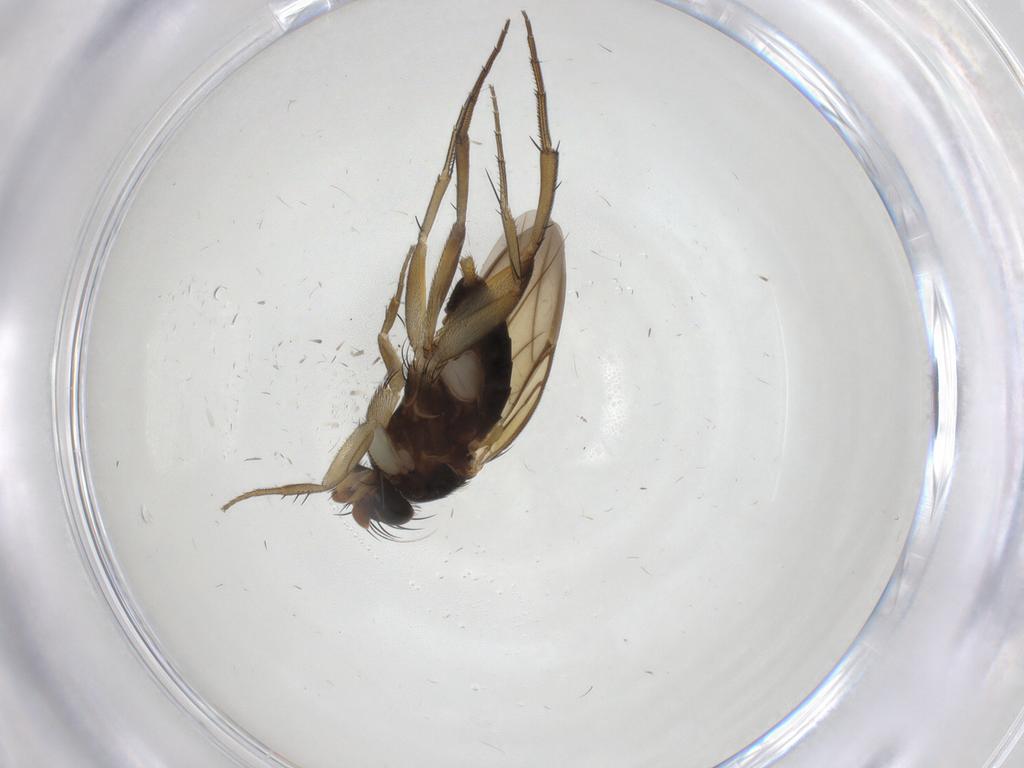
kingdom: Animalia
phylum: Arthropoda
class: Insecta
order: Diptera
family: Phoridae
